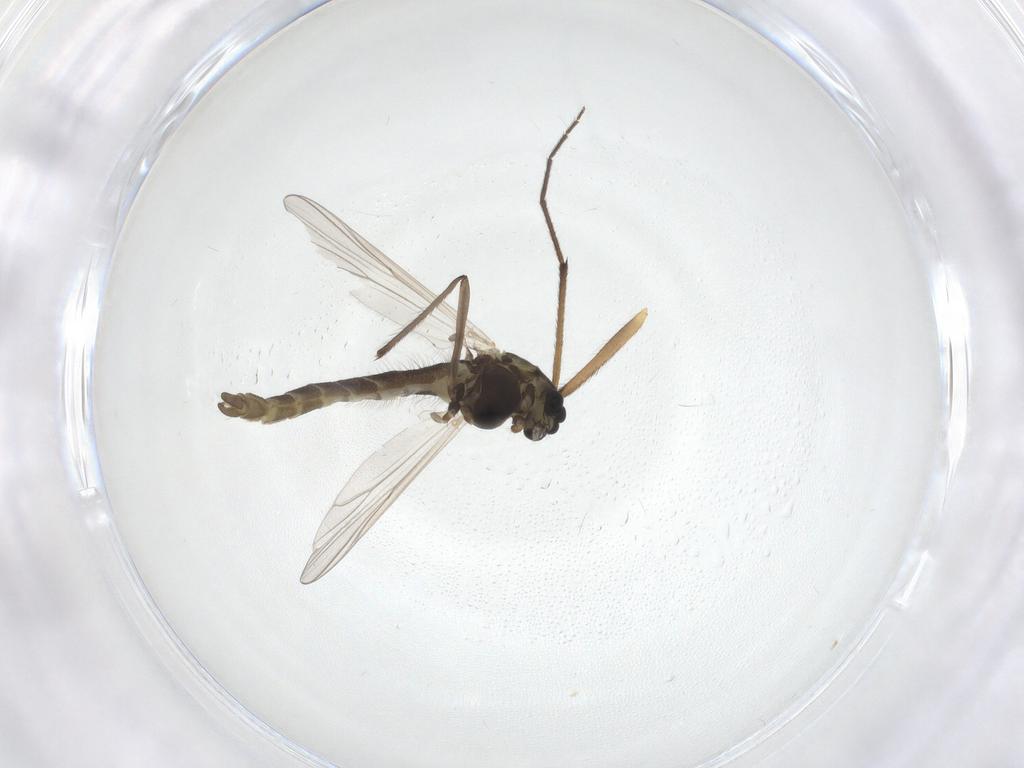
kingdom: Animalia
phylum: Arthropoda
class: Insecta
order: Diptera
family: Chironomidae
